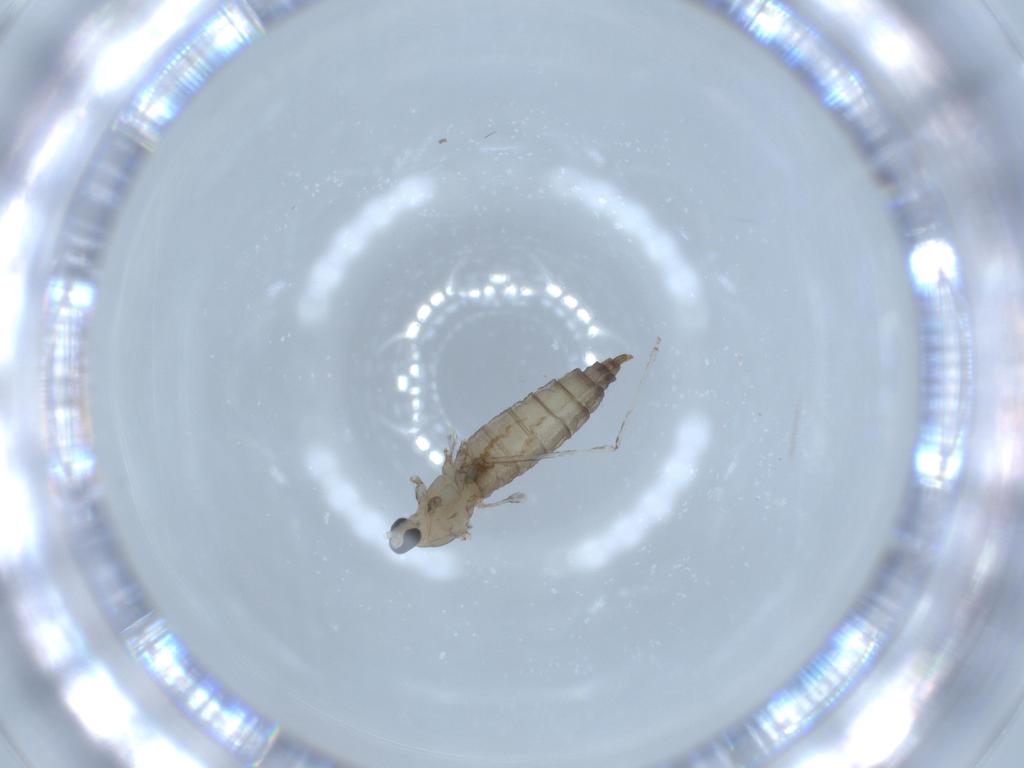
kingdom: Animalia
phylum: Arthropoda
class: Insecta
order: Diptera
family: Cecidomyiidae
